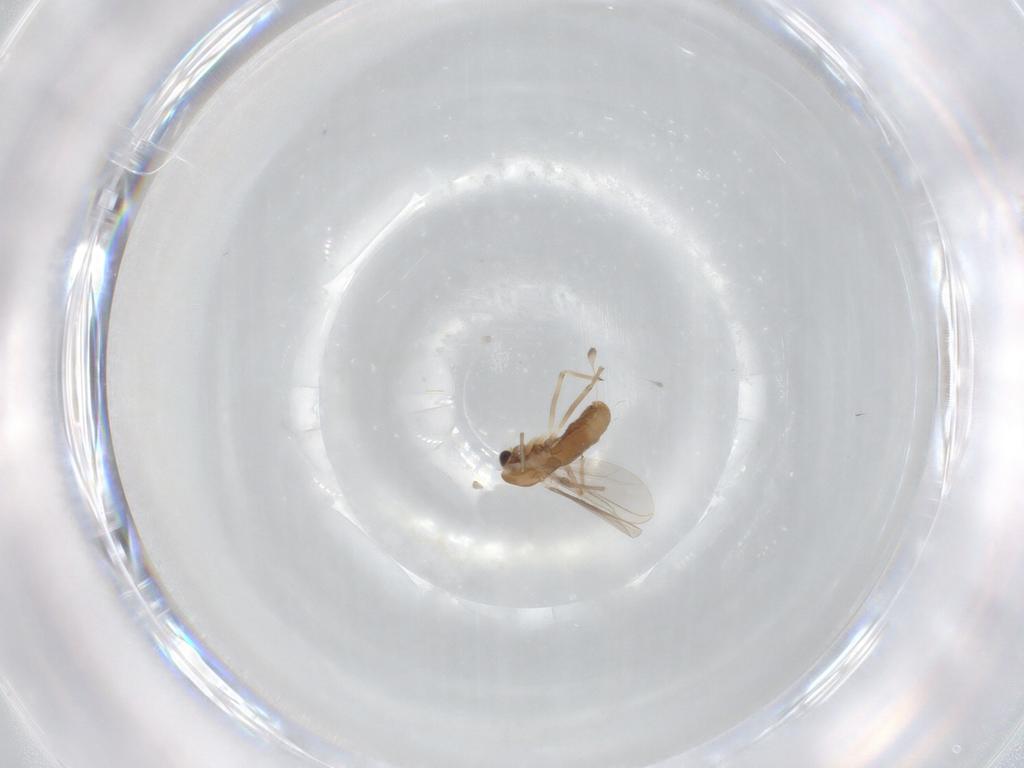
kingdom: Animalia
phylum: Arthropoda
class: Insecta
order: Diptera
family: Chironomidae
